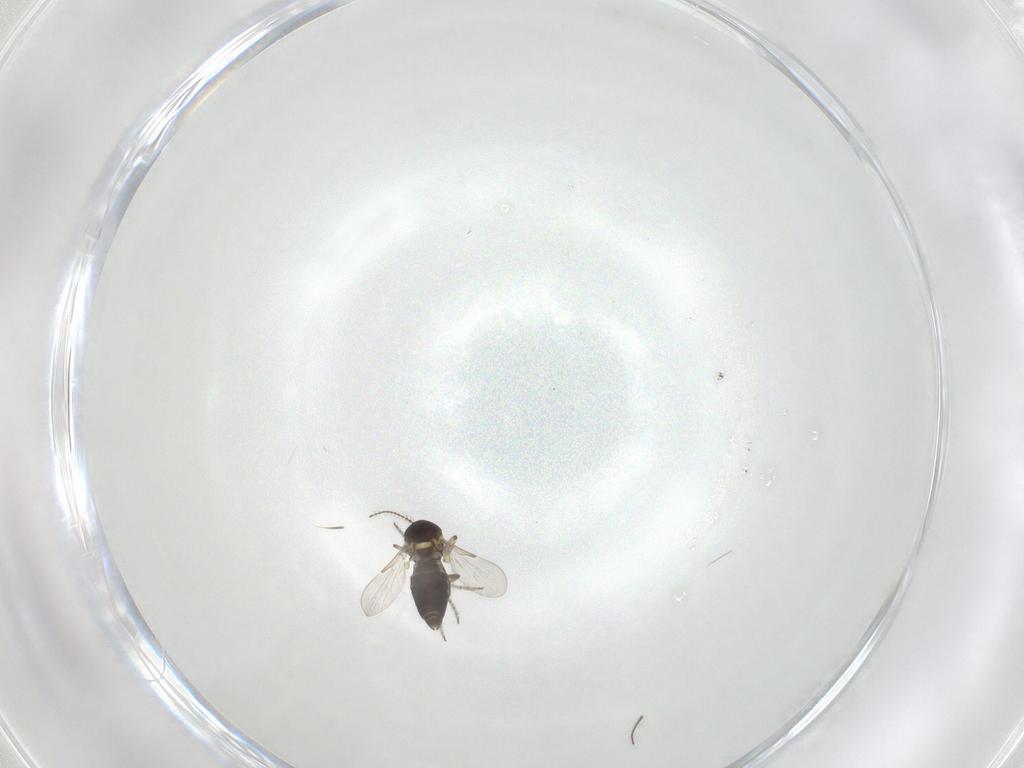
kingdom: Animalia
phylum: Arthropoda
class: Insecta
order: Diptera
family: Ceratopogonidae
